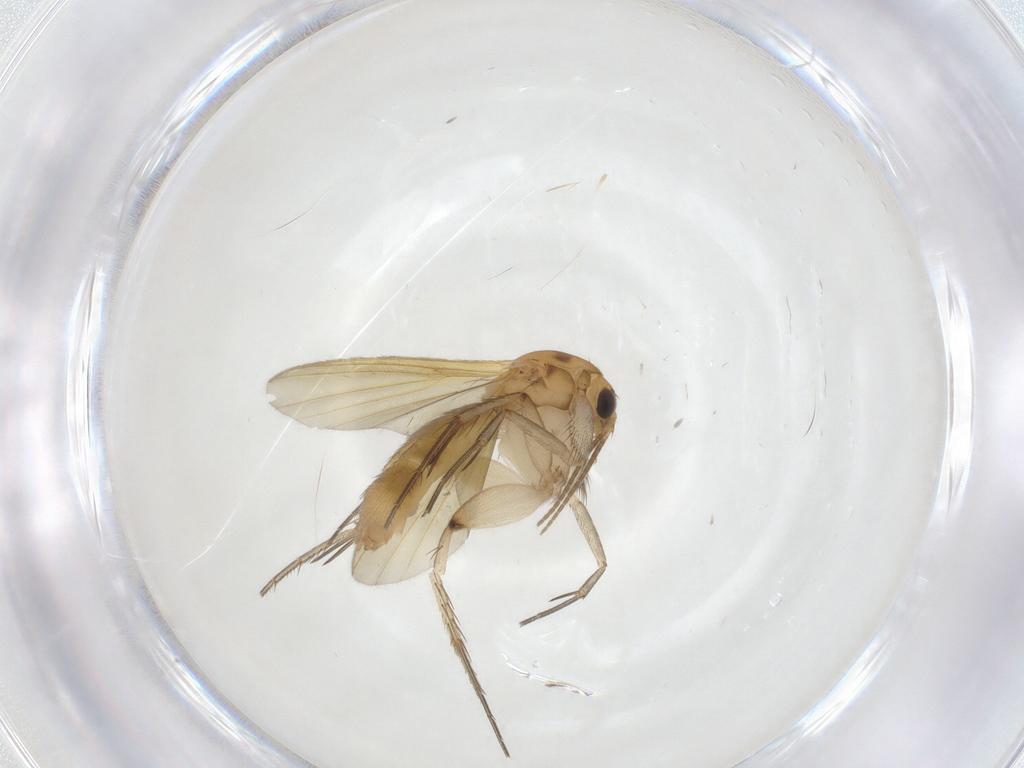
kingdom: Animalia
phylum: Arthropoda
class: Insecta
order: Diptera
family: Mycetophilidae
